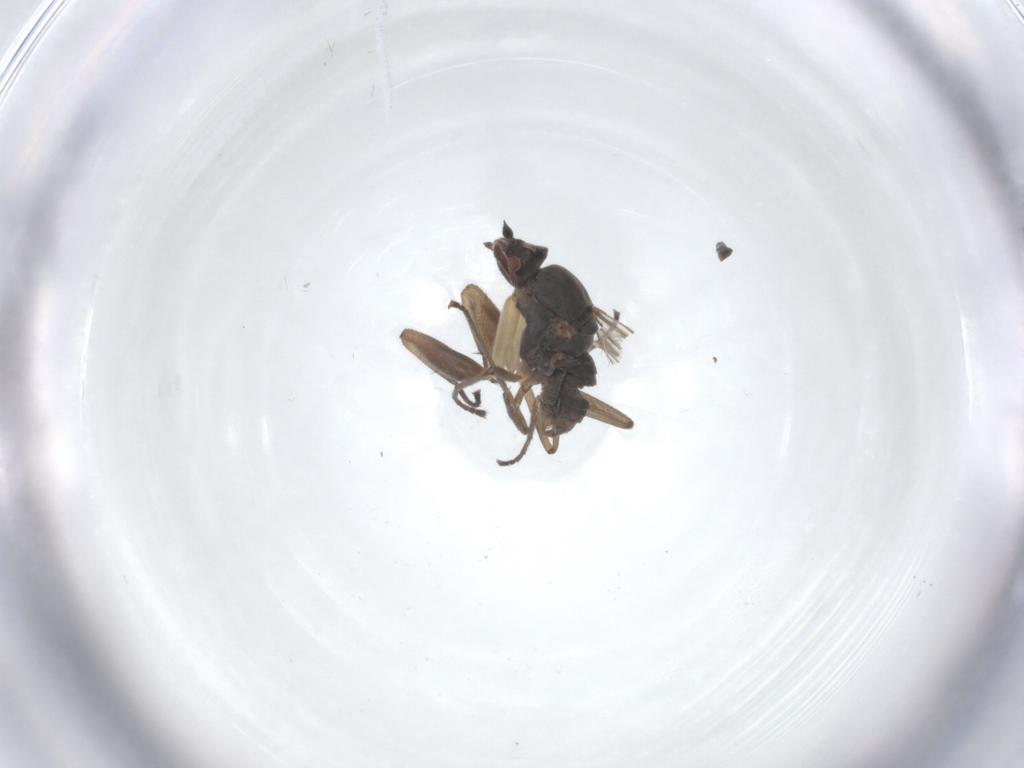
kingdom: Animalia
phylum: Arthropoda
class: Insecta
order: Diptera
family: Empididae
